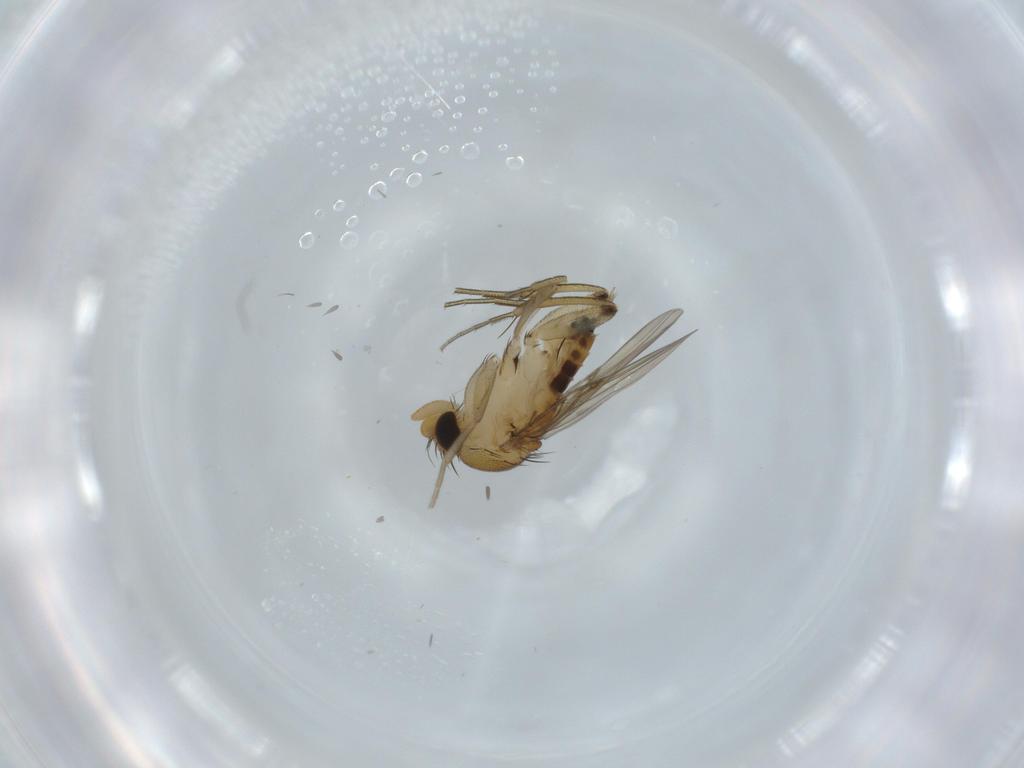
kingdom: Animalia
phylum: Arthropoda
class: Insecta
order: Diptera
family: Phoridae
